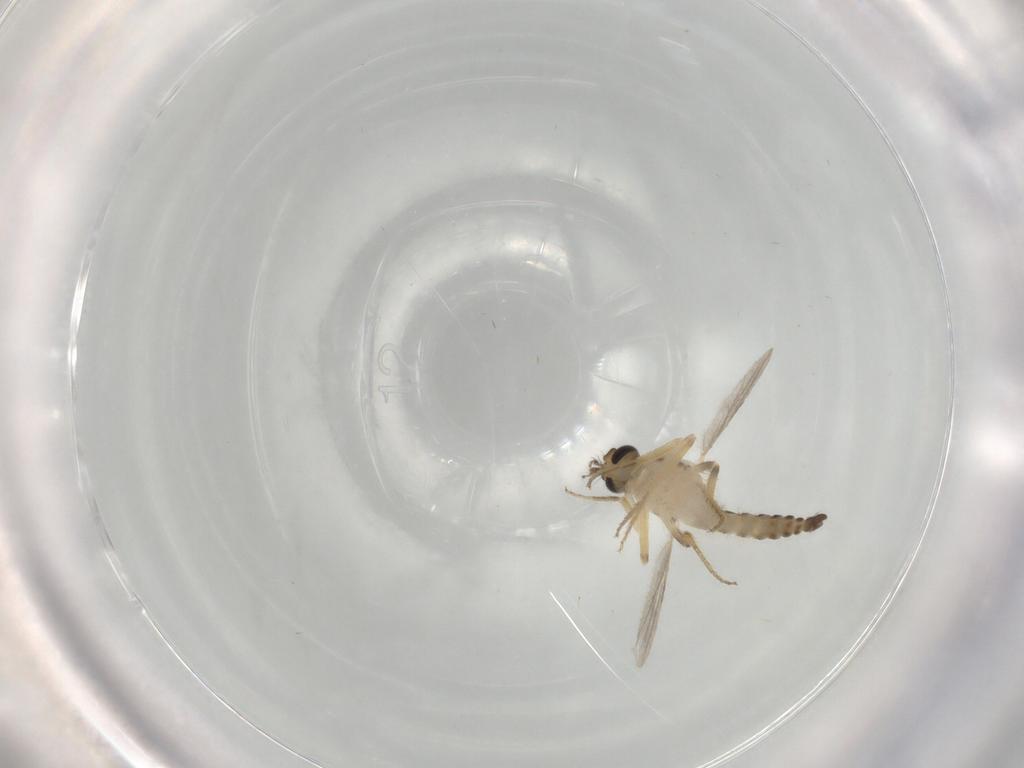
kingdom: Animalia
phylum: Arthropoda
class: Insecta
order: Diptera
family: Ceratopogonidae
